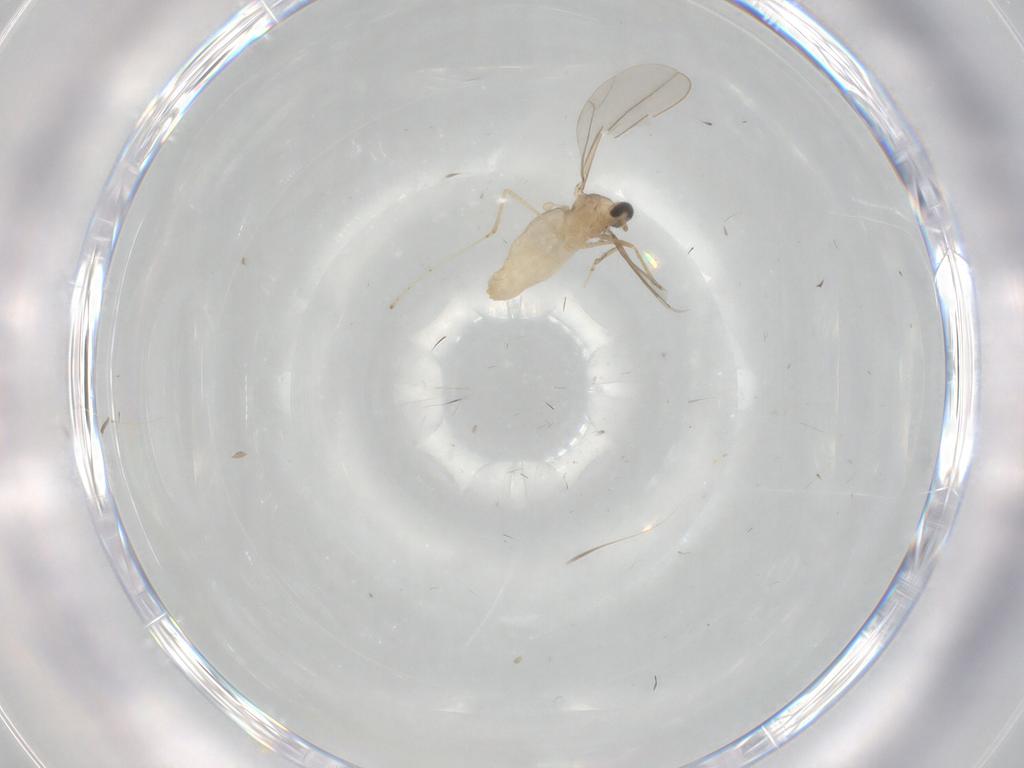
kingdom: Animalia
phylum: Arthropoda
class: Insecta
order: Diptera
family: Cecidomyiidae
